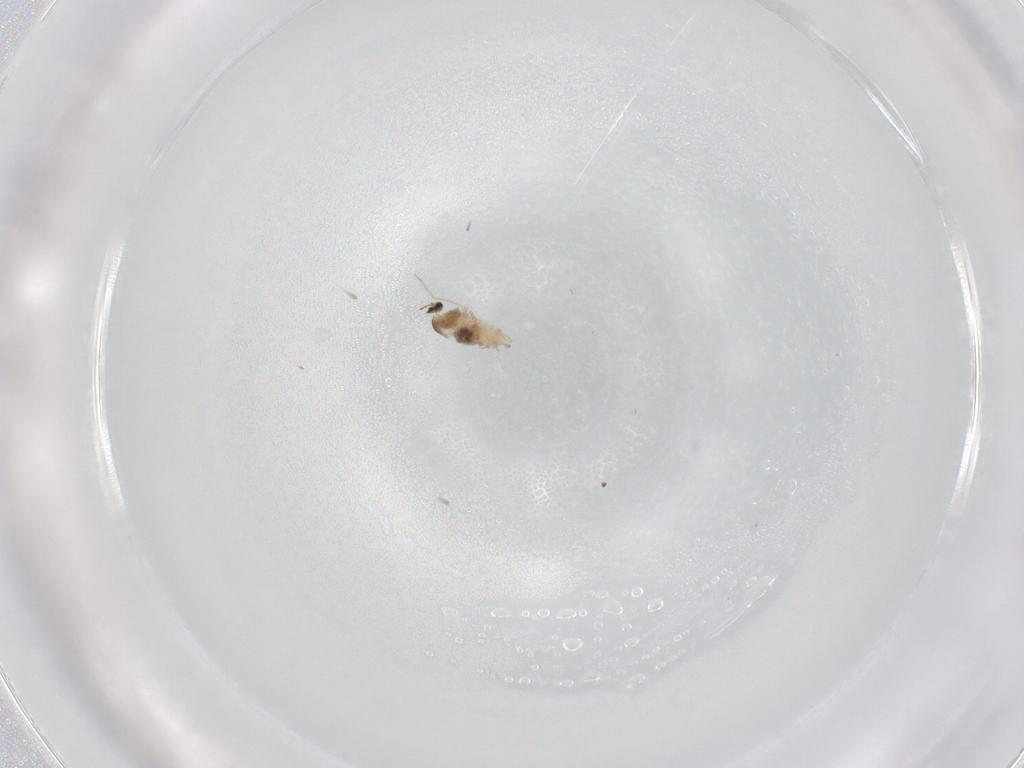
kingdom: Animalia
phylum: Arthropoda
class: Insecta
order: Diptera
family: Ditomyiidae
